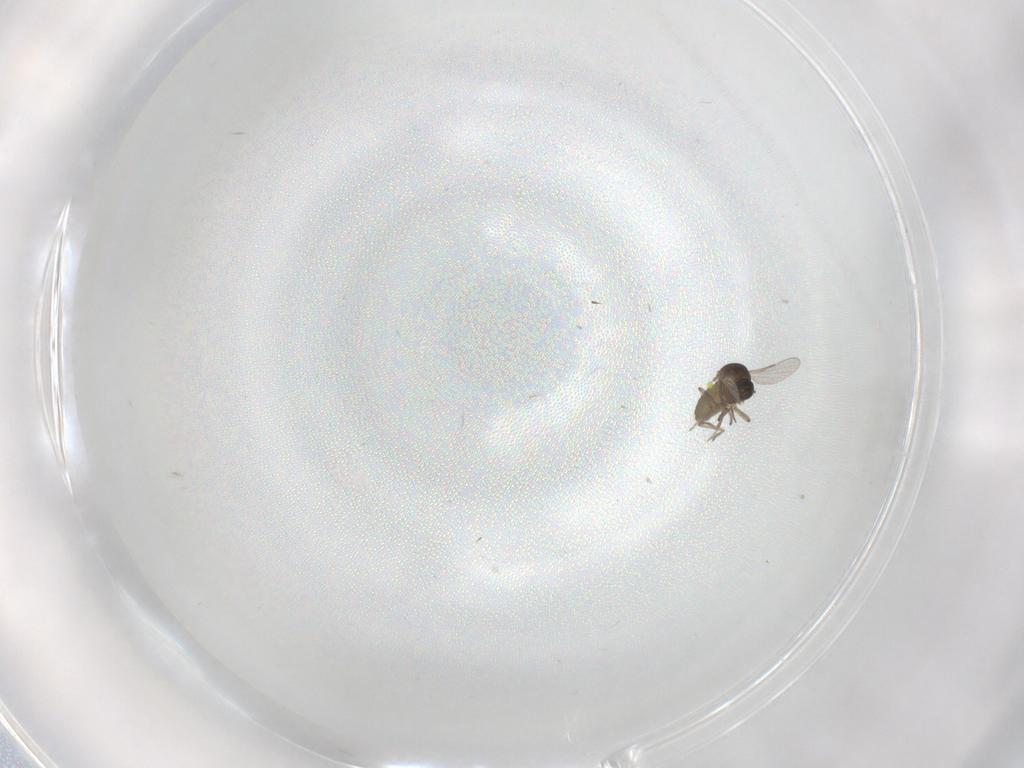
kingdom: Animalia
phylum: Arthropoda
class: Insecta
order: Diptera
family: Ceratopogonidae
